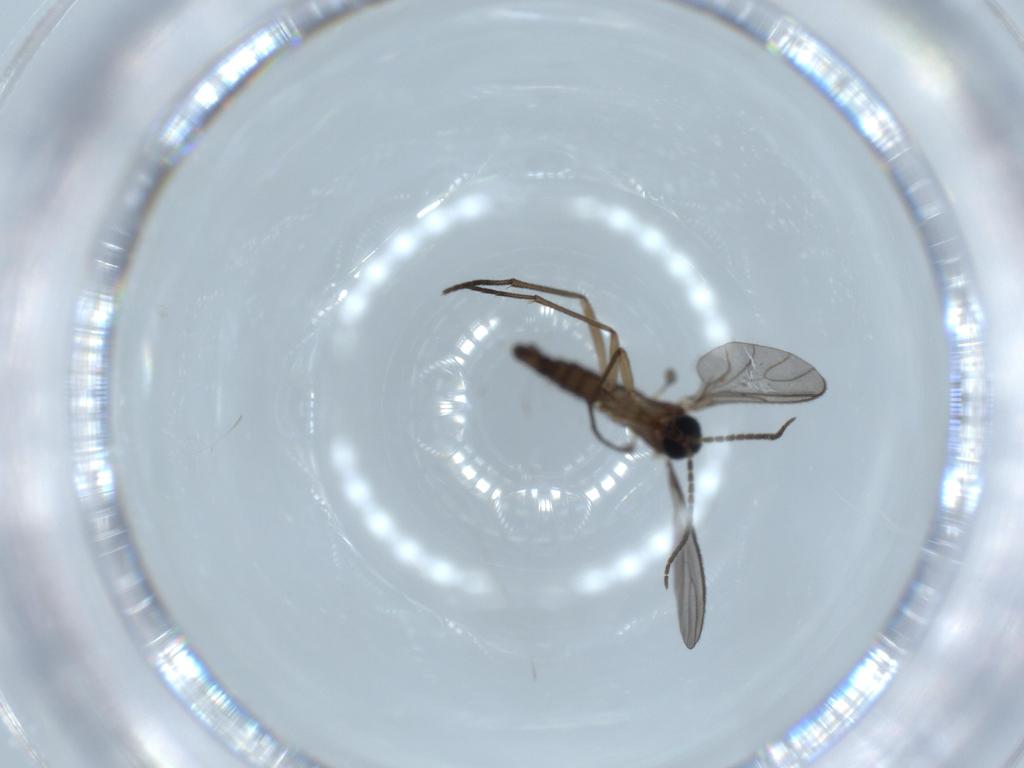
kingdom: Animalia
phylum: Arthropoda
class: Insecta
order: Diptera
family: Sciaridae
